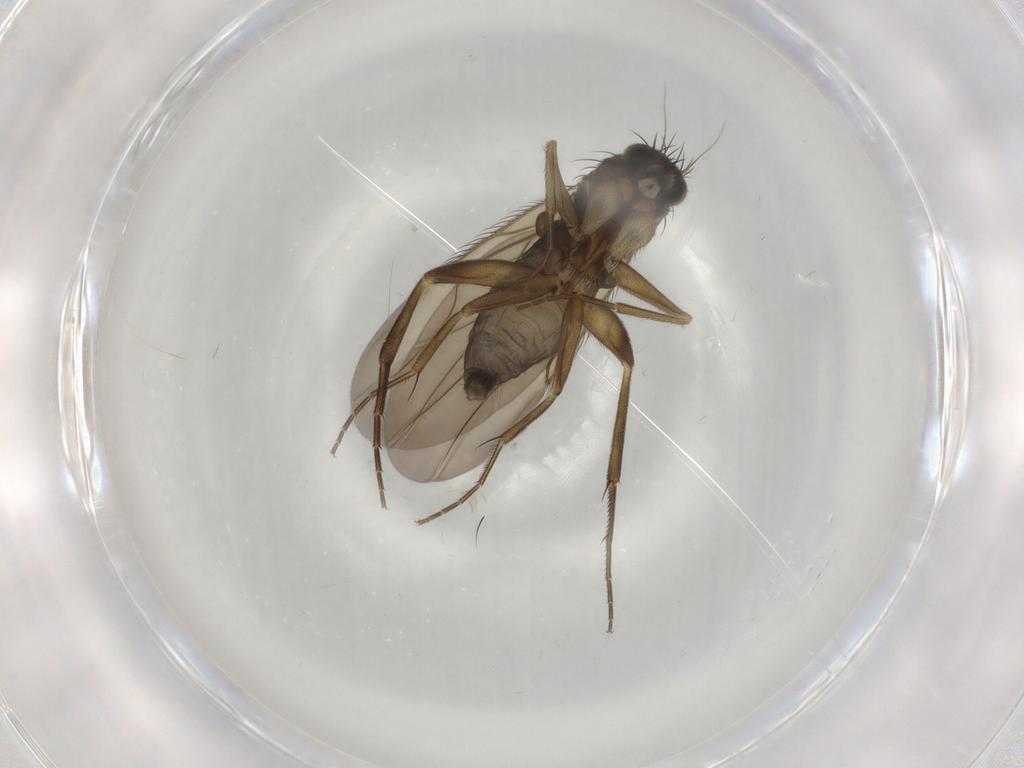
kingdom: Animalia
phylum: Arthropoda
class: Insecta
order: Diptera
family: Phoridae
